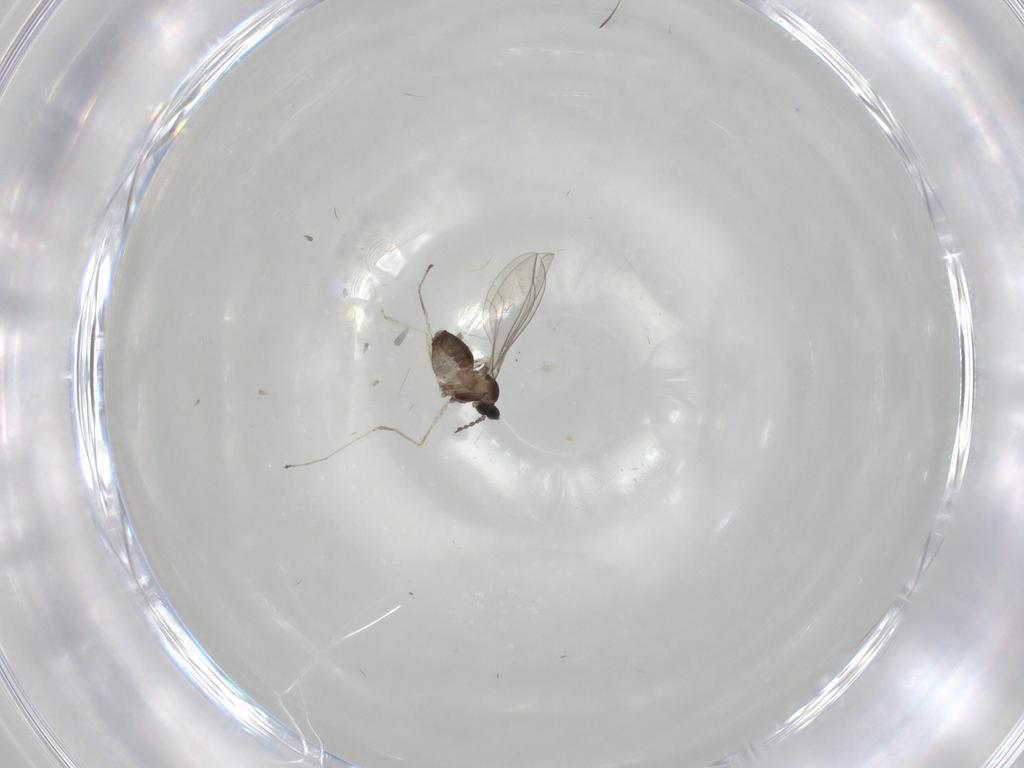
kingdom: Animalia
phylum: Arthropoda
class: Insecta
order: Diptera
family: Cecidomyiidae
